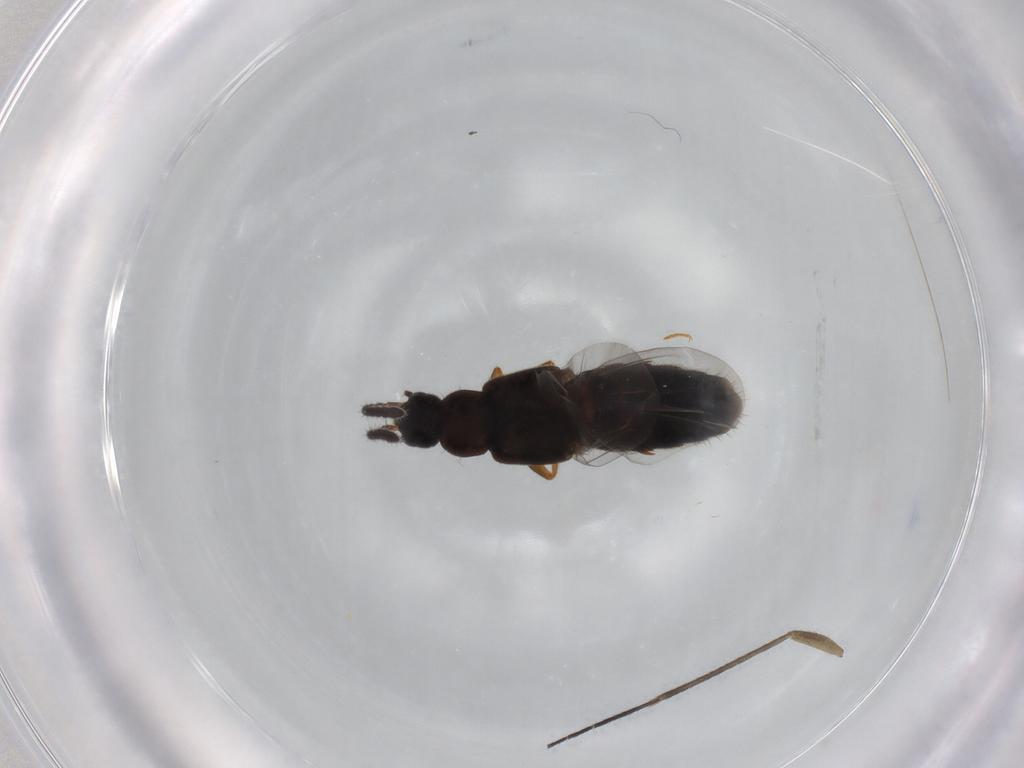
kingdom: Animalia
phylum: Arthropoda
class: Insecta
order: Coleoptera
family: Staphylinidae
